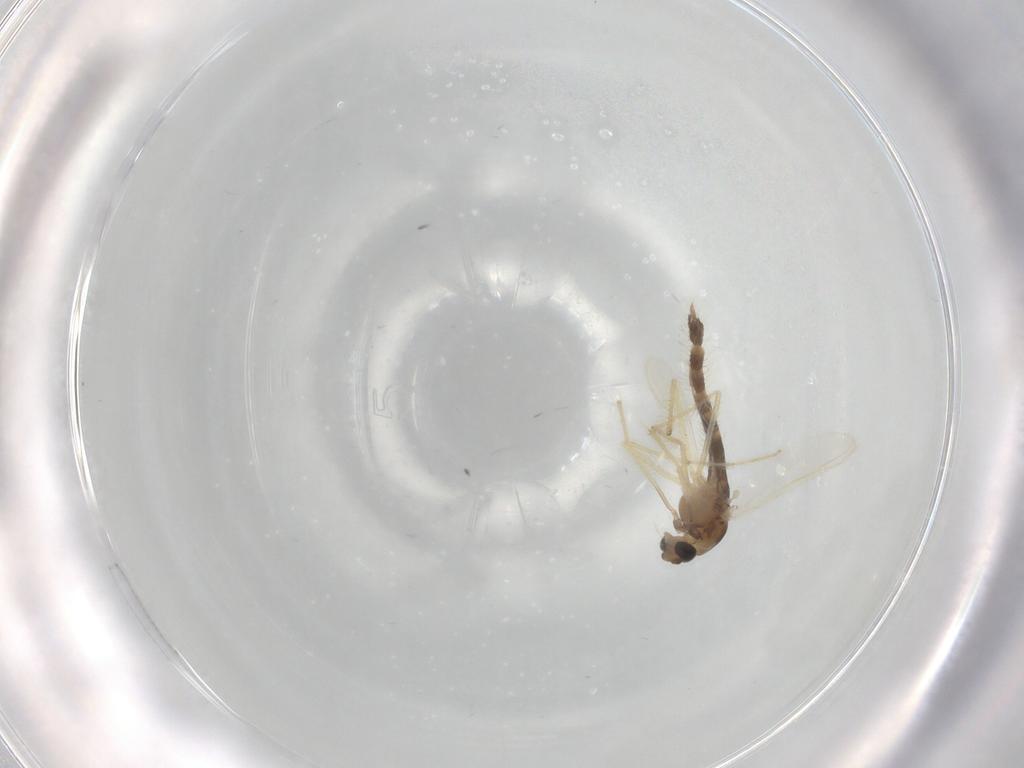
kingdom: Animalia
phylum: Arthropoda
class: Insecta
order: Diptera
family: Chironomidae
